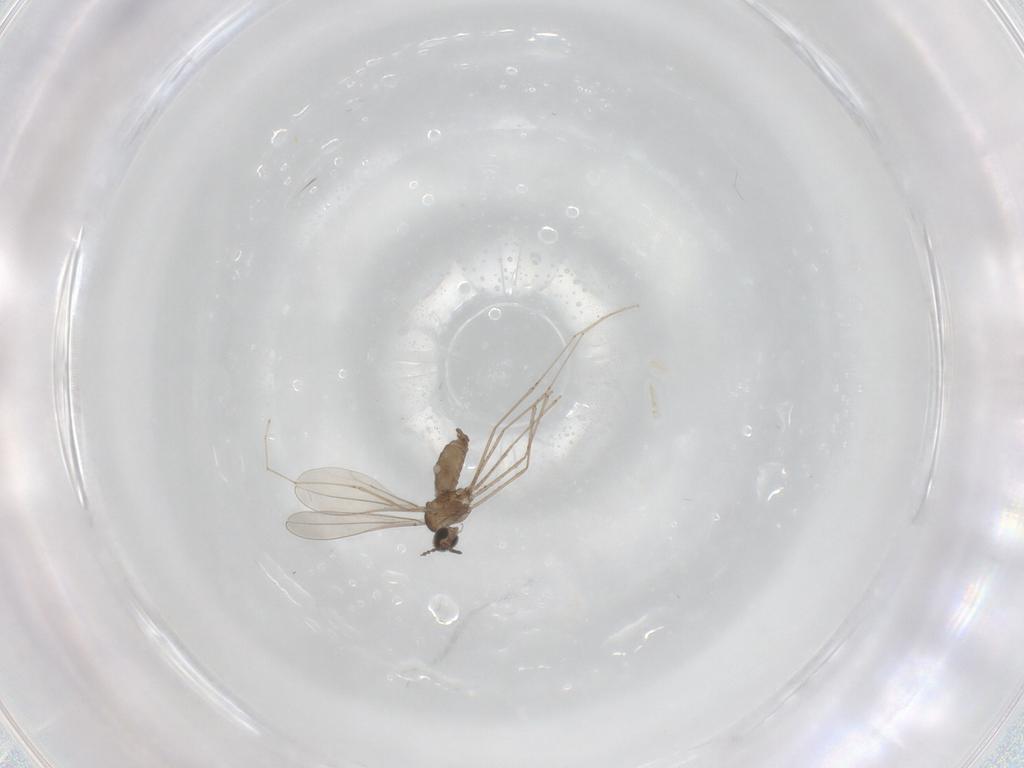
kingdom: Animalia
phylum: Arthropoda
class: Insecta
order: Diptera
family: Cecidomyiidae
